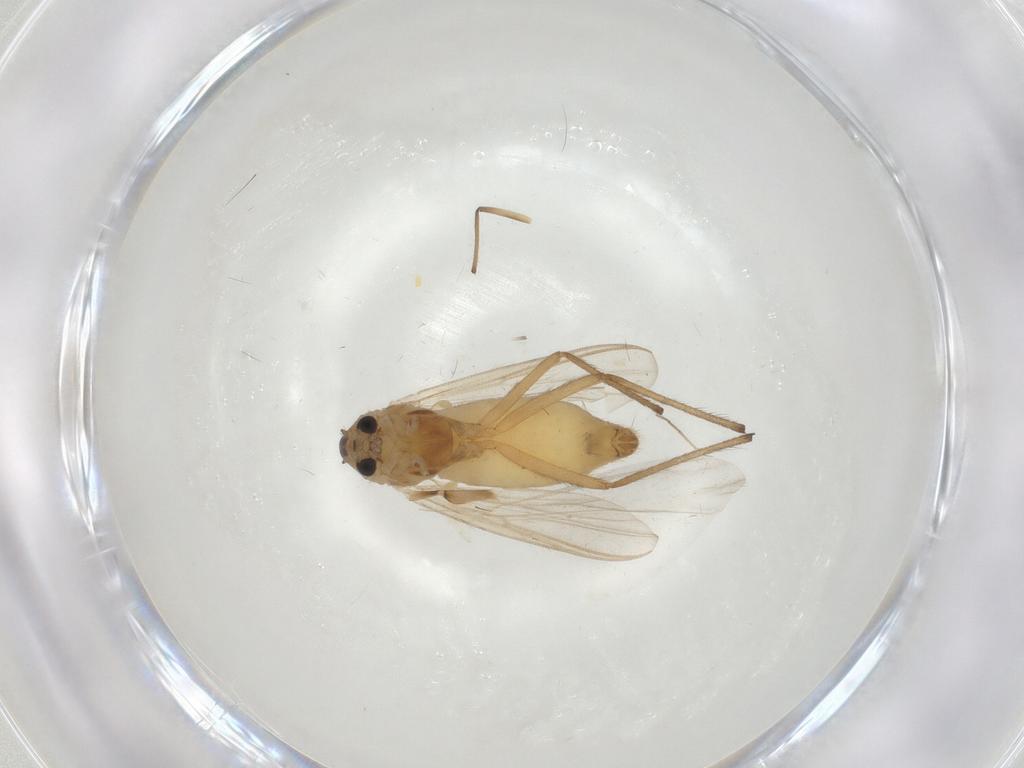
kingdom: Animalia
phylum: Arthropoda
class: Insecta
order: Diptera
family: Chironomidae
